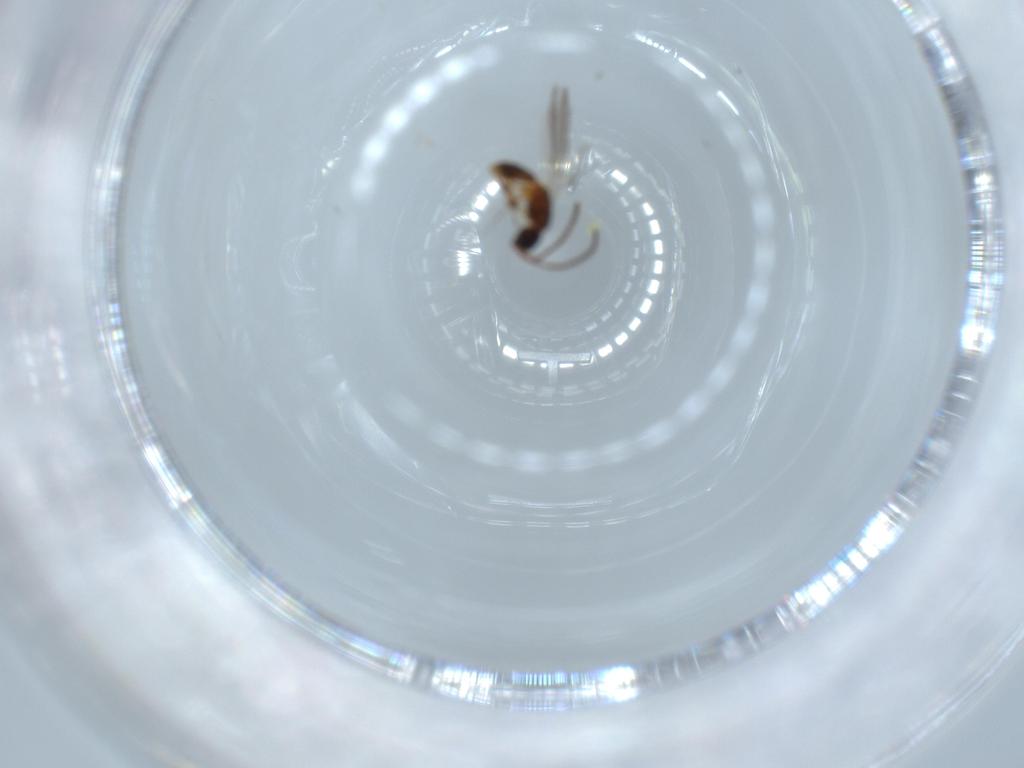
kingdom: Animalia
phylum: Arthropoda
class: Insecta
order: Hymenoptera
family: Diapriidae
